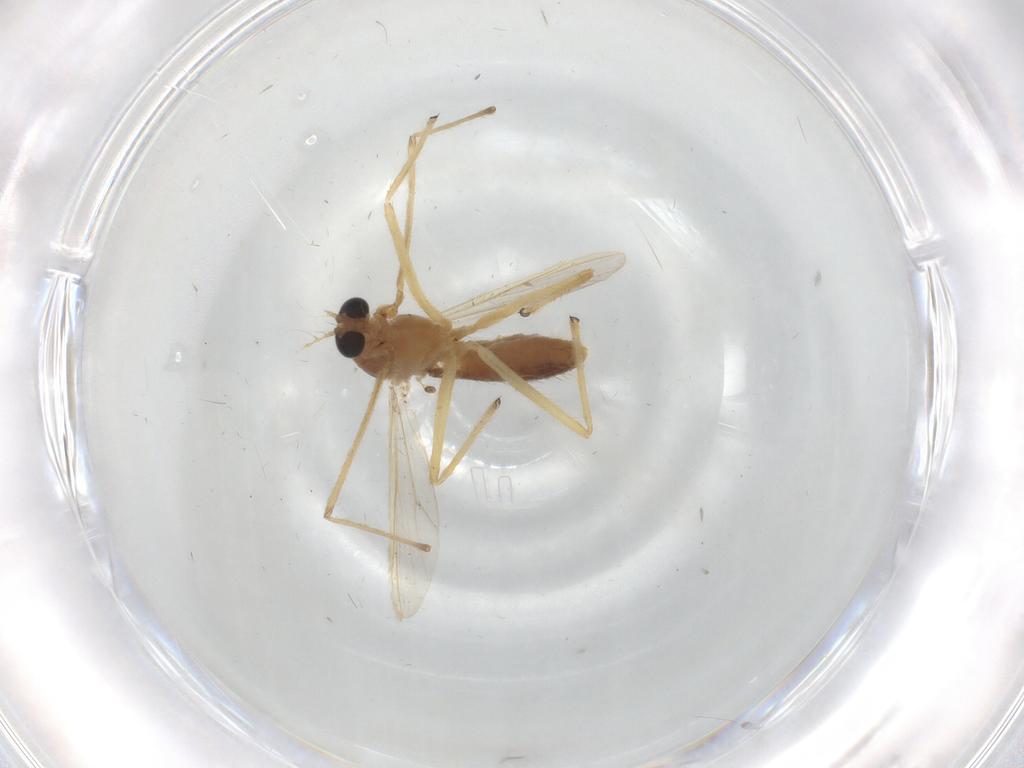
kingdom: Animalia
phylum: Arthropoda
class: Insecta
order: Diptera
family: Chironomidae
